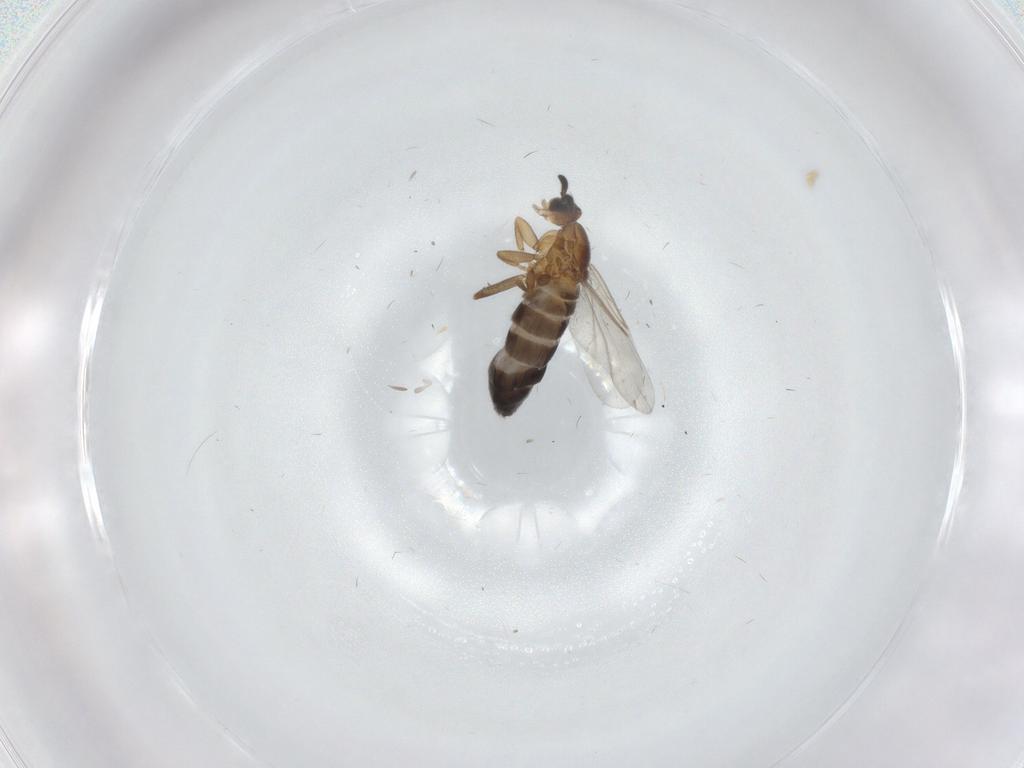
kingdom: Animalia
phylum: Arthropoda
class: Insecta
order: Diptera
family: Scatopsidae
